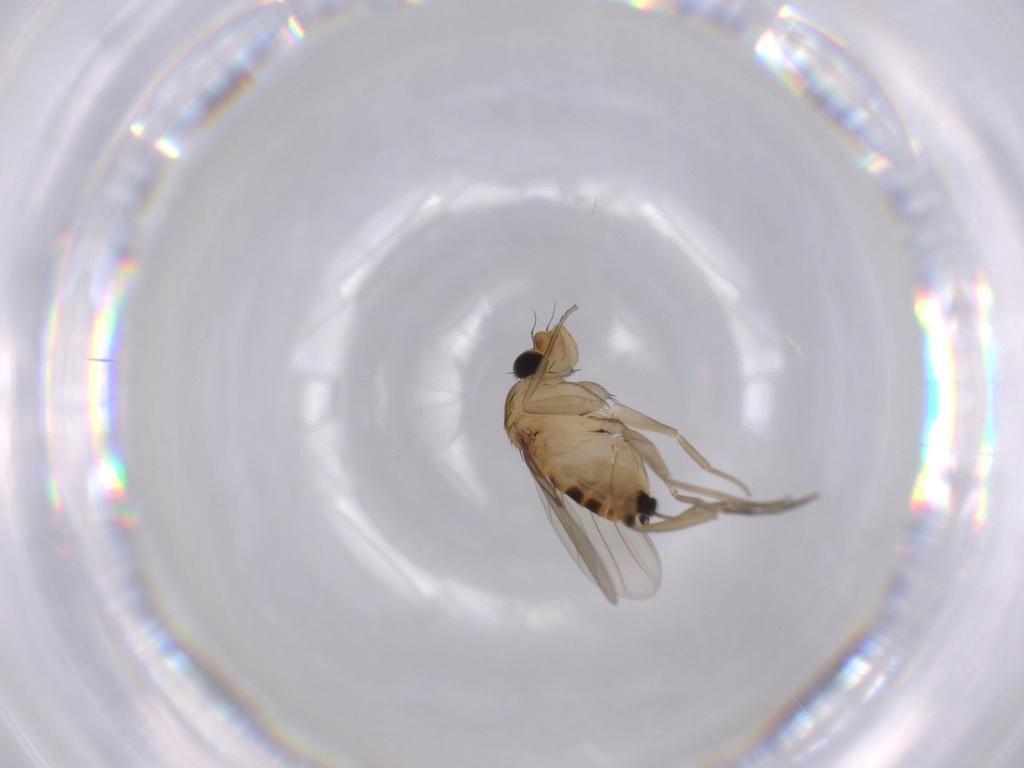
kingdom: Animalia
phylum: Arthropoda
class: Insecta
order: Diptera
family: Phoridae
